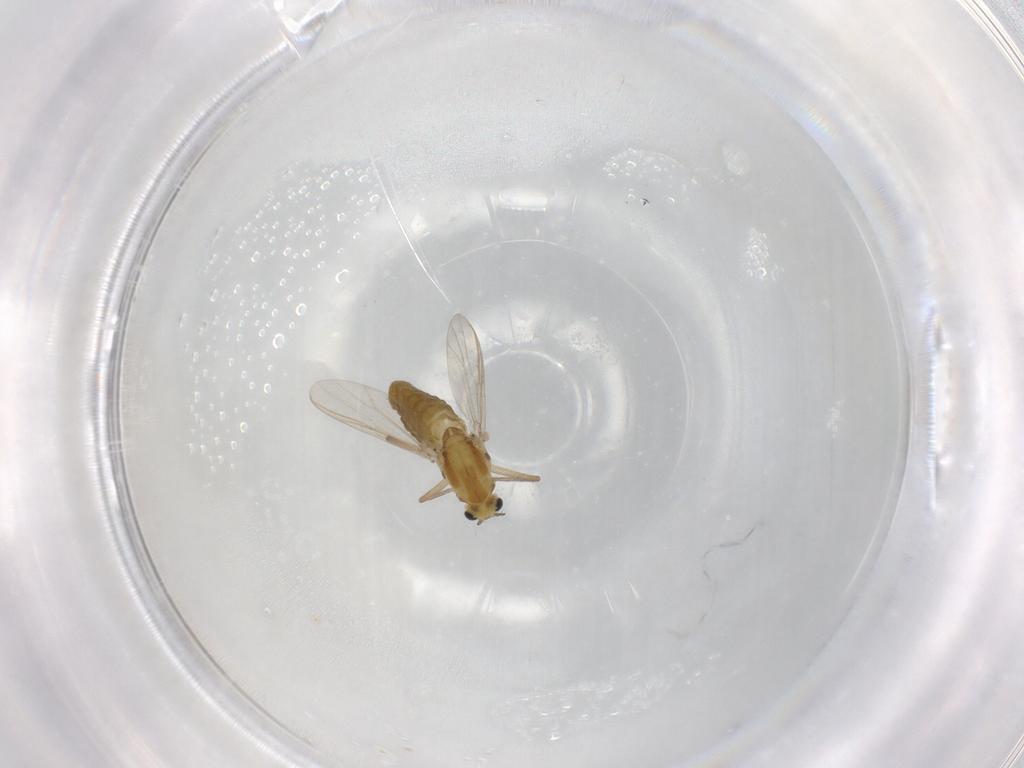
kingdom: Animalia
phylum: Arthropoda
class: Insecta
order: Diptera
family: Chironomidae
